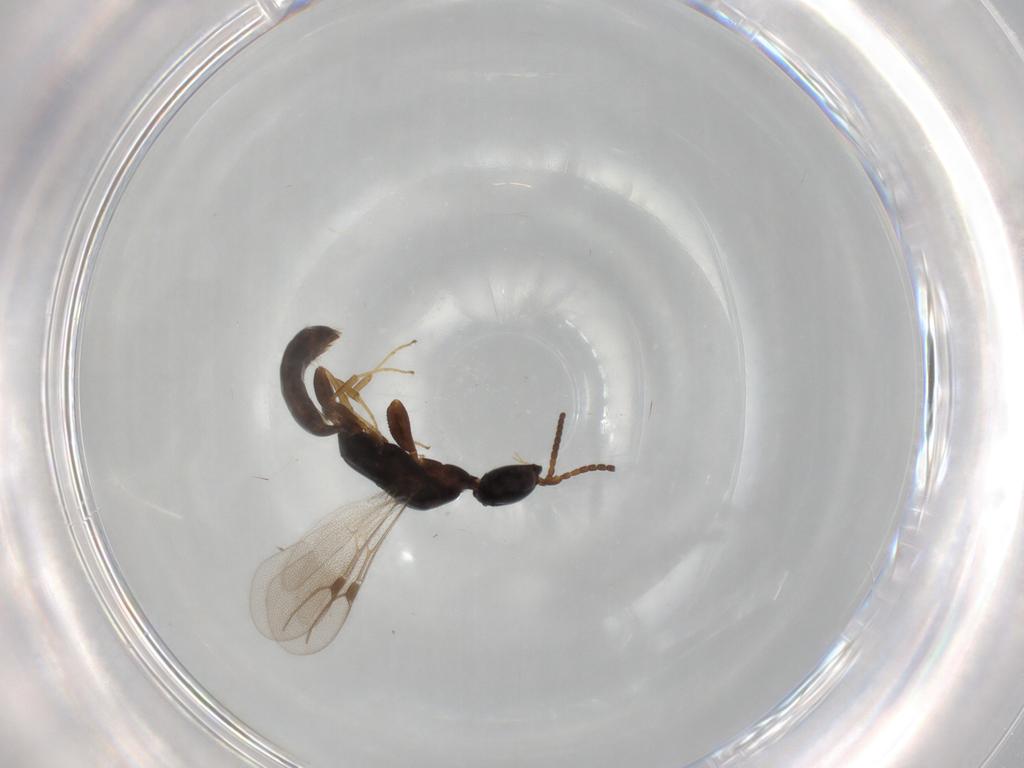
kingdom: Animalia
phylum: Arthropoda
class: Insecta
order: Hymenoptera
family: Bethylidae
